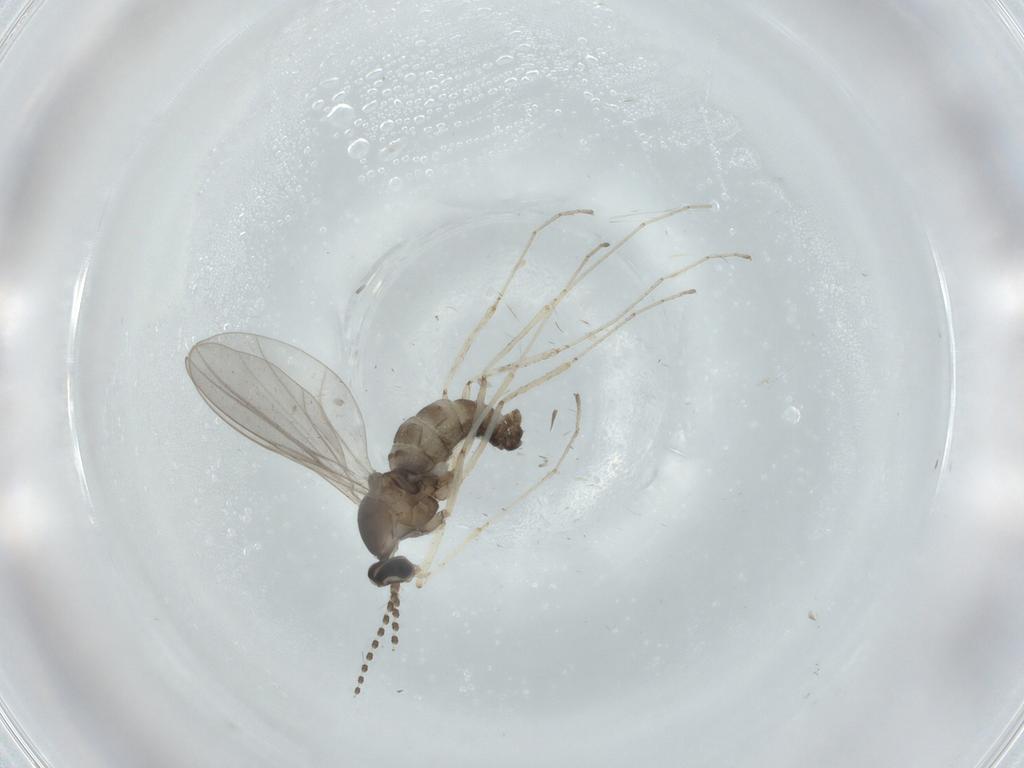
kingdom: Animalia
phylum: Arthropoda
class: Insecta
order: Diptera
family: Cecidomyiidae
